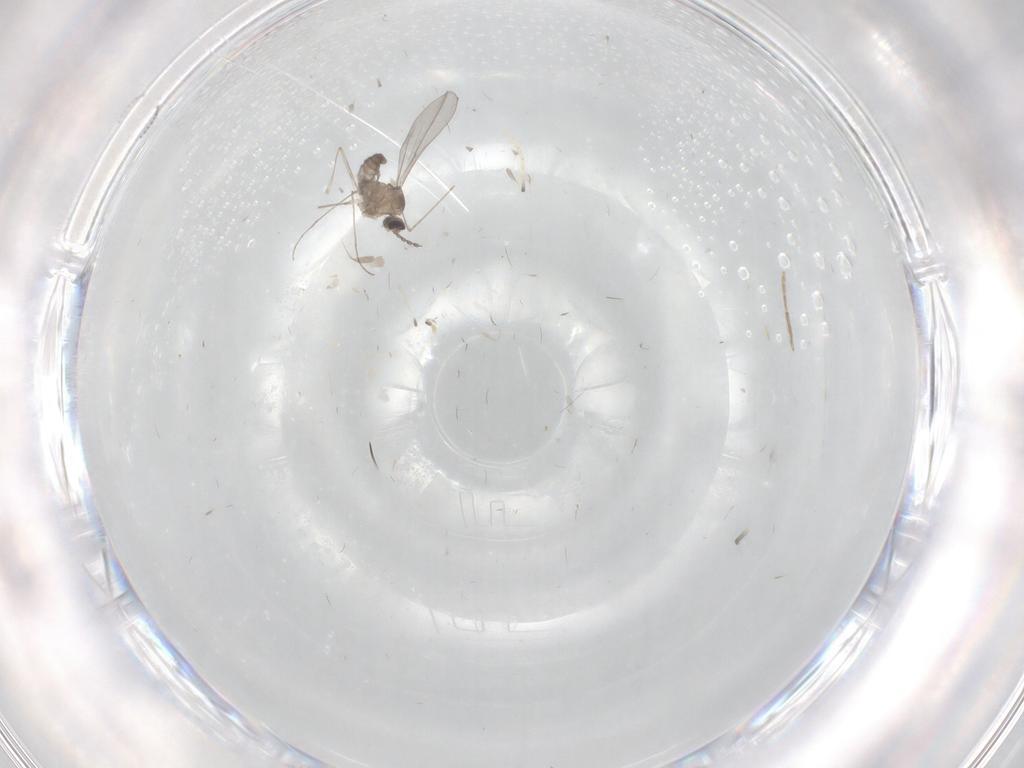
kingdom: Animalia
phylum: Arthropoda
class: Insecta
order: Diptera
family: Cecidomyiidae
